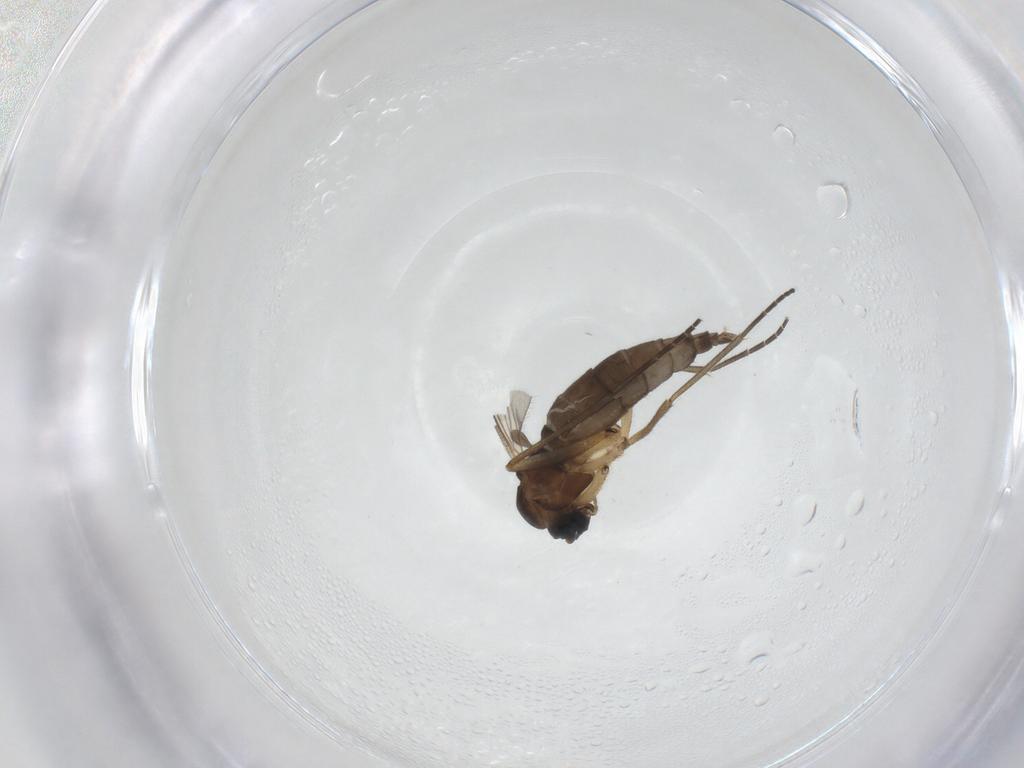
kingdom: Animalia
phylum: Arthropoda
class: Insecta
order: Diptera
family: Sciaridae
